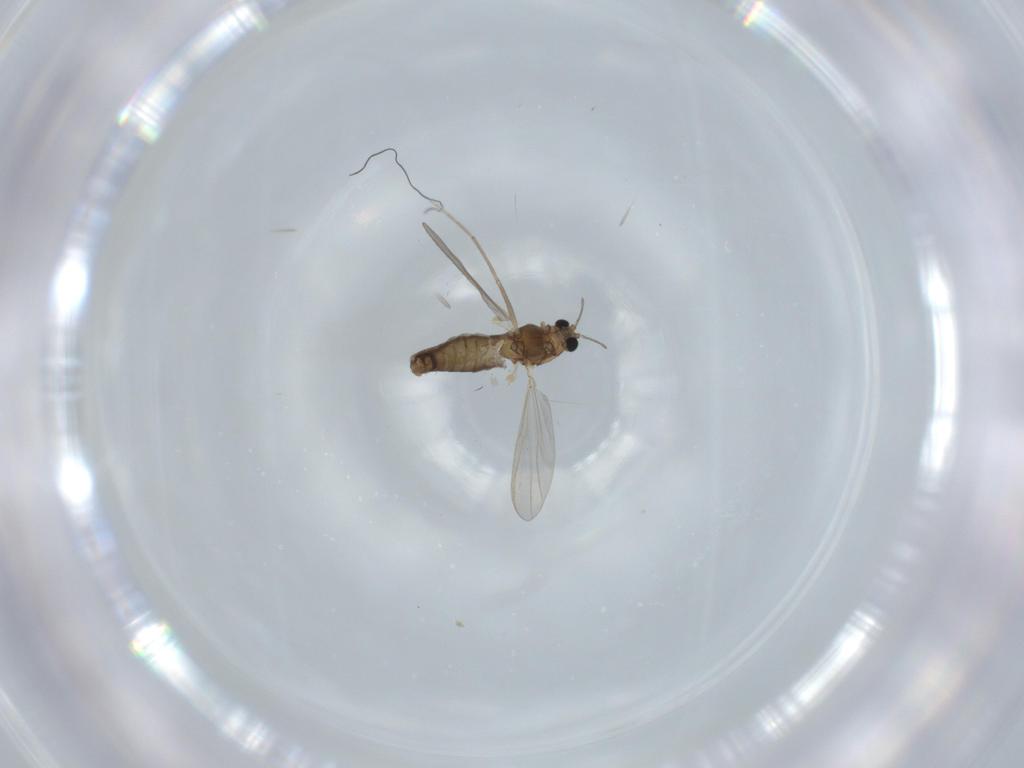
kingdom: Animalia
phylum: Arthropoda
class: Insecta
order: Diptera
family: Chironomidae
